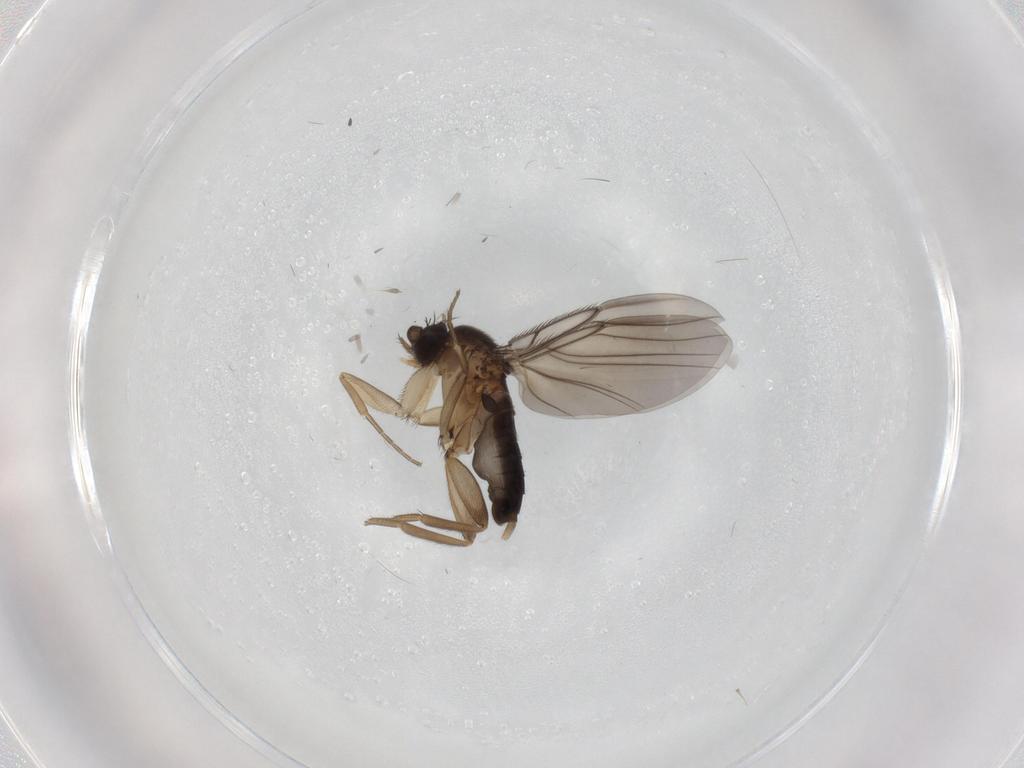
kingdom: Animalia
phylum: Arthropoda
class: Insecta
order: Diptera
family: Phoridae
